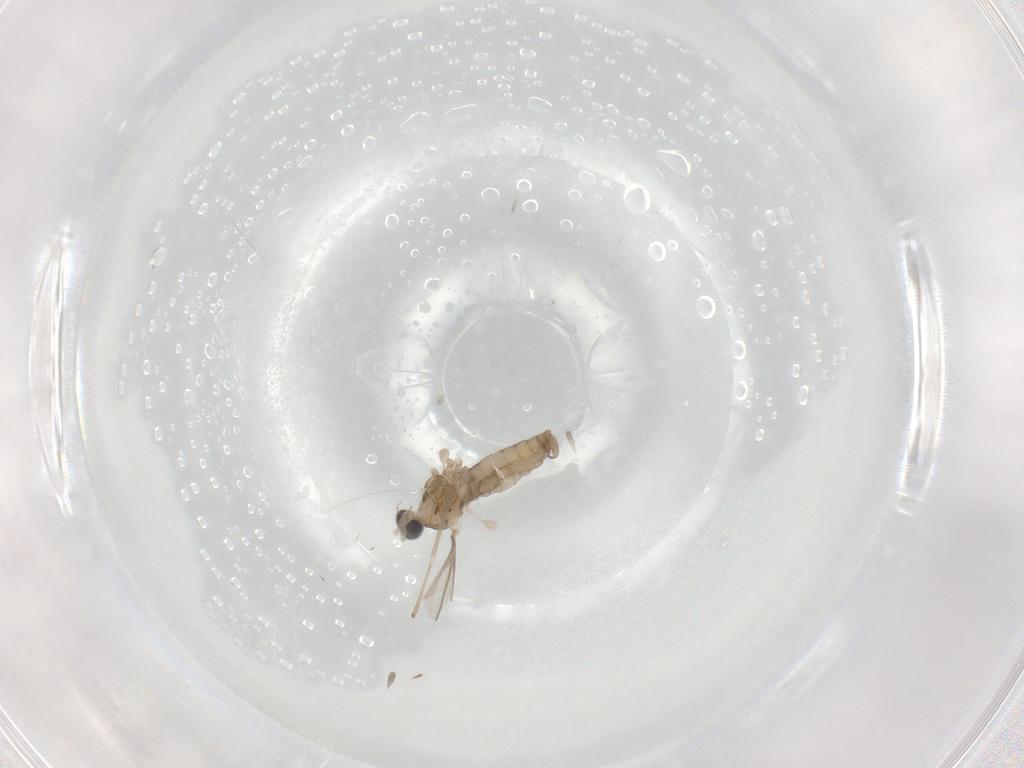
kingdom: Animalia
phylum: Arthropoda
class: Insecta
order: Diptera
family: Cecidomyiidae
